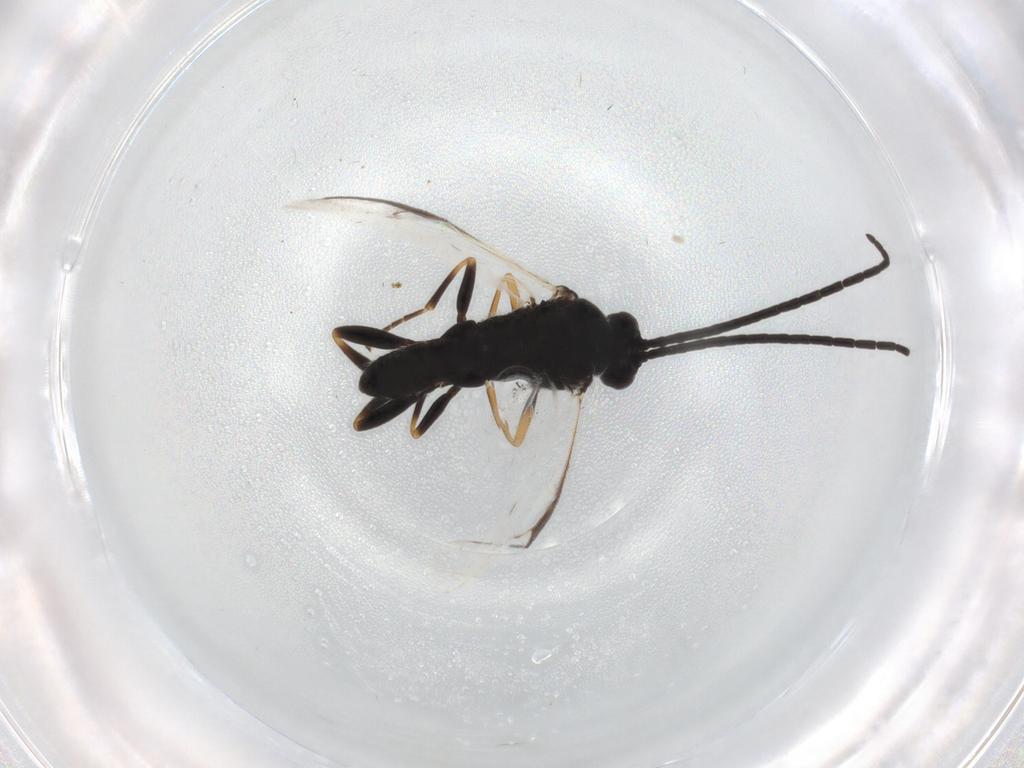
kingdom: Animalia
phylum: Arthropoda
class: Insecta
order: Hymenoptera
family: Braconidae
